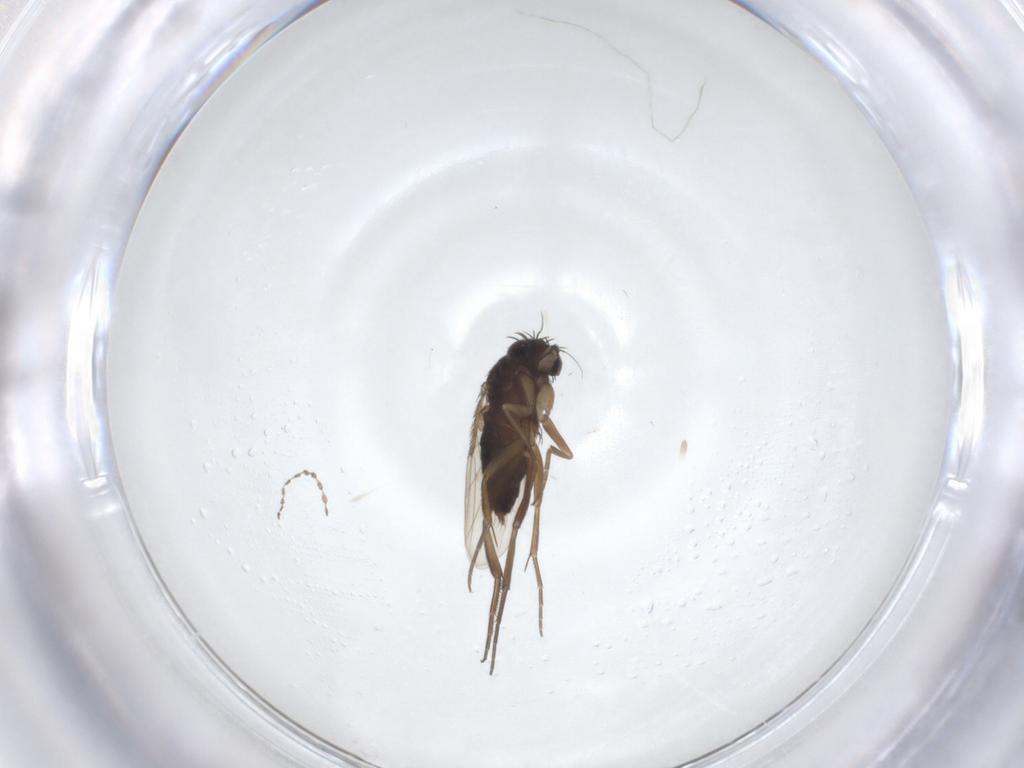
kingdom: Animalia
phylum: Arthropoda
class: Insecta
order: Diptera
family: Phoridae
